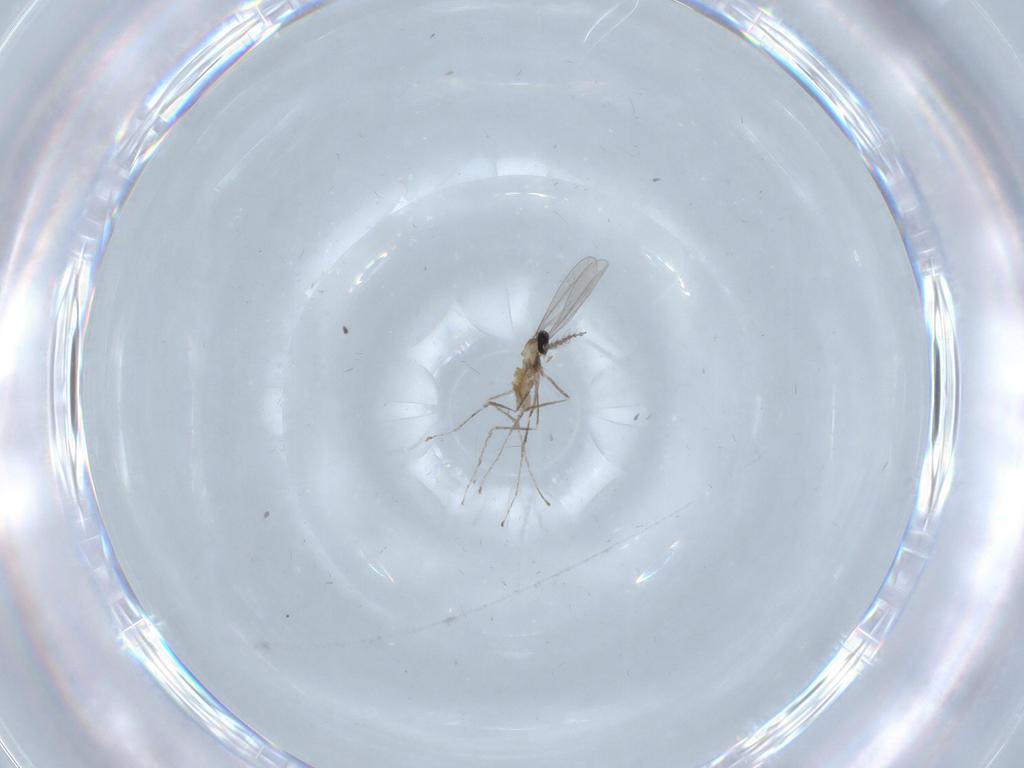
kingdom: Animalia
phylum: Arthropoda
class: Insecta
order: Diptera
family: Cecidomyiidae
